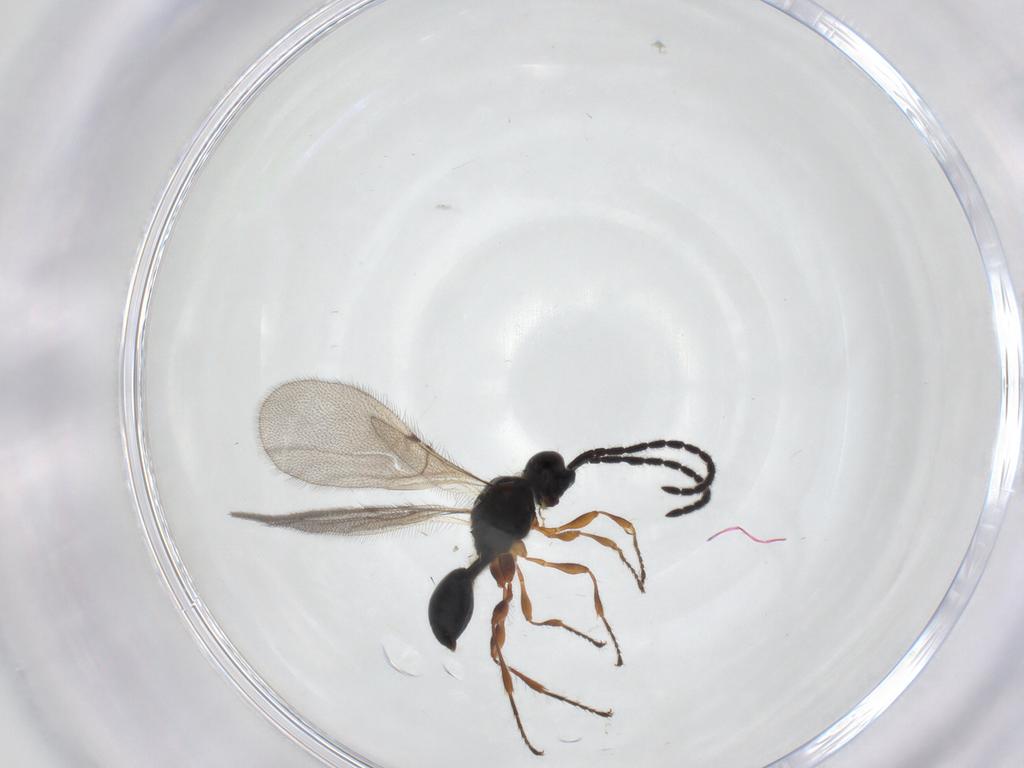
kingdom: Animalia
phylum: Arthropoda
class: Insecta
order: Hymenoptera
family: Diapriidae
